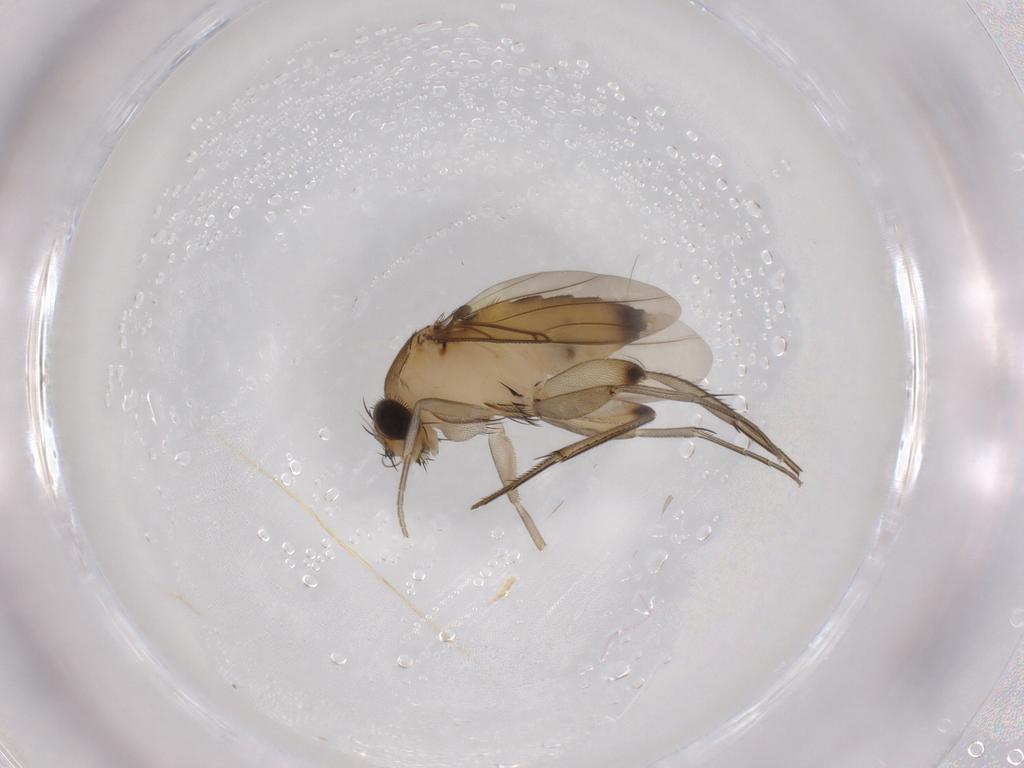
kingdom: Animalia
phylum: Arthropoda
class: Insecta
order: Diptera
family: Phoridae
